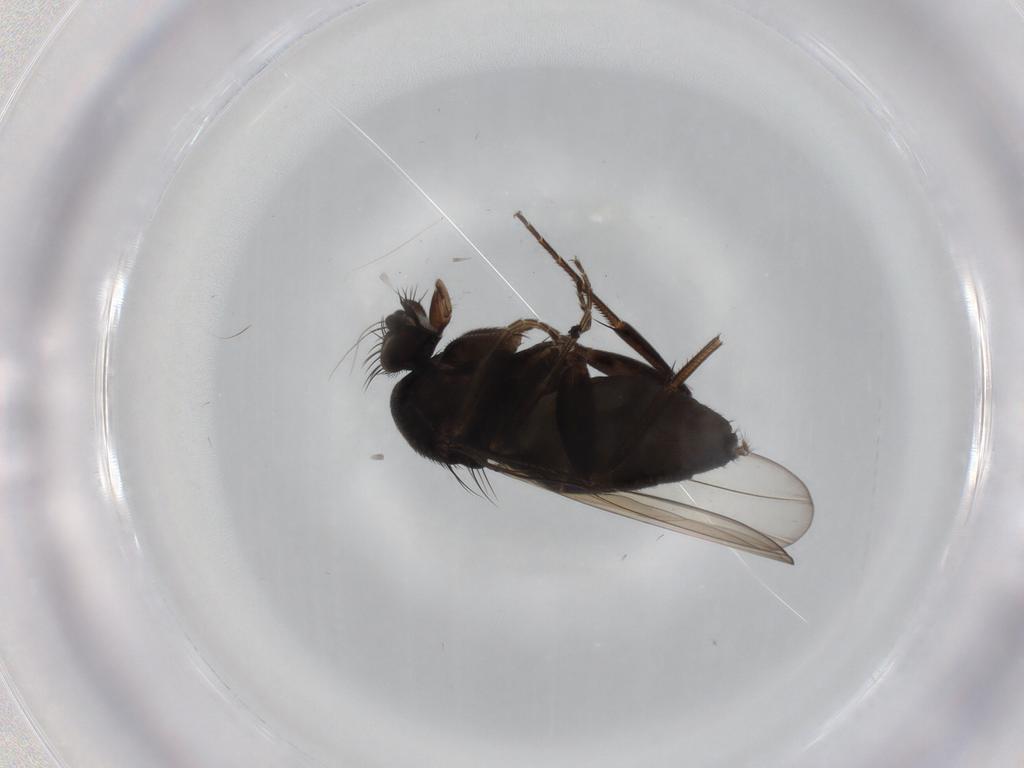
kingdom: Animalia
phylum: Arthropoda
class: Insecta
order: Diptera
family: Phoridae
